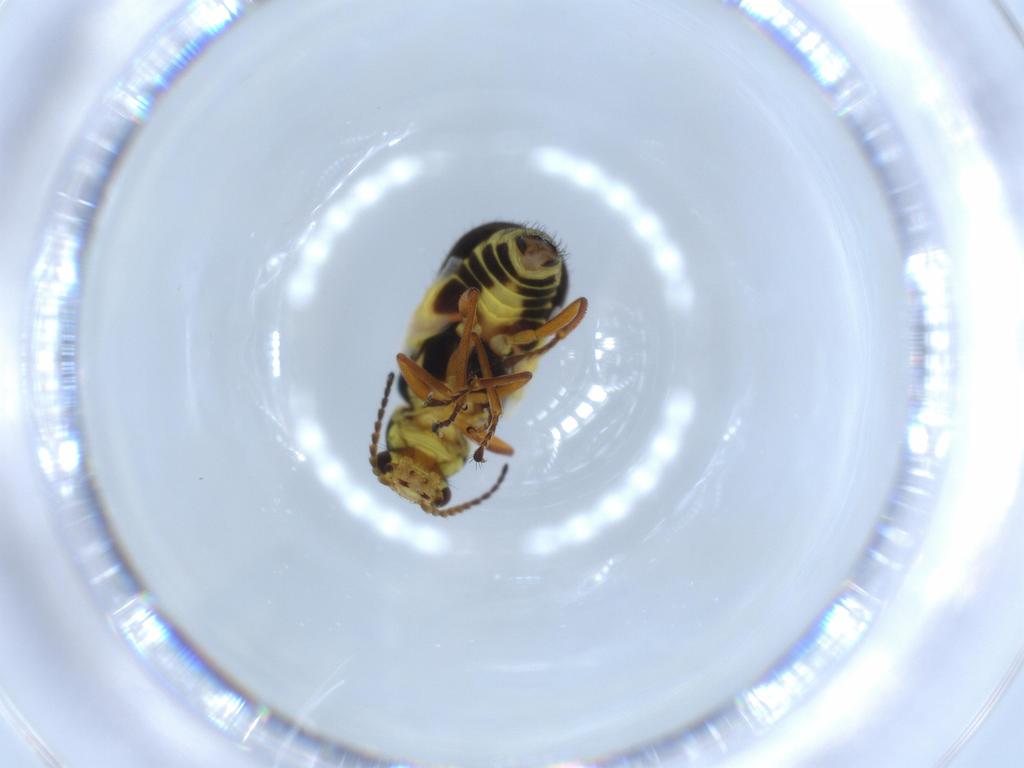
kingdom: Animalia
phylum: Arthropoda
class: Insecta
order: Coleoptera
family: Melyridae
